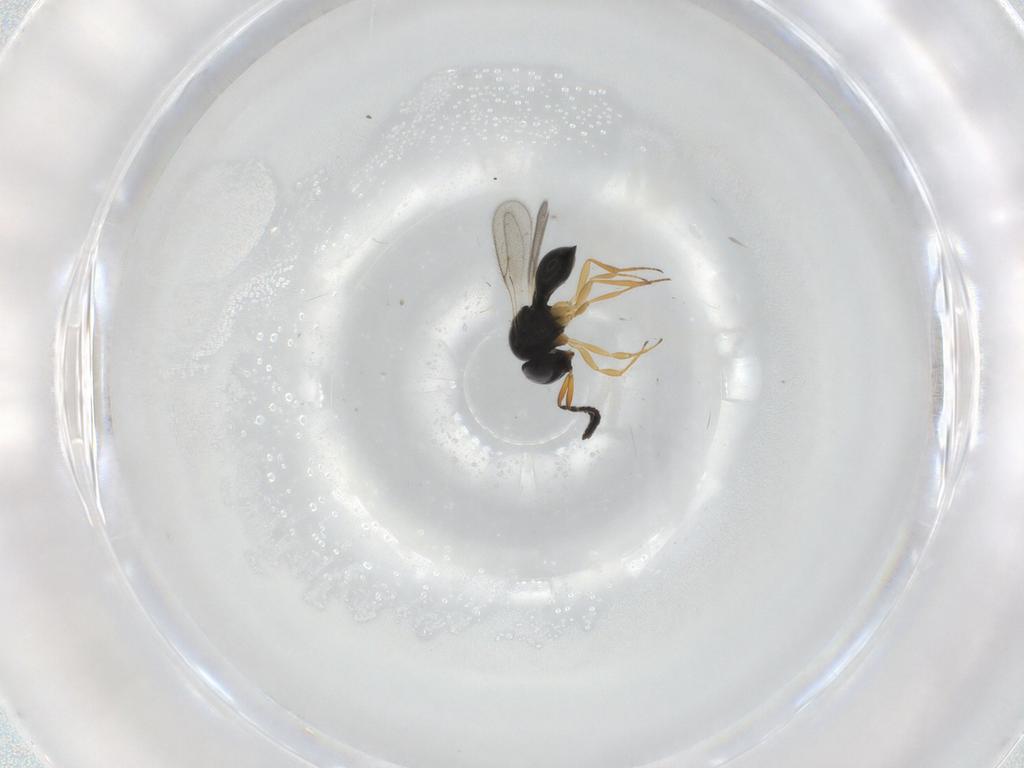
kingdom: Animalia
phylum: Arthropoda
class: Insecta
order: Hymenoptera
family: Scelionidae
